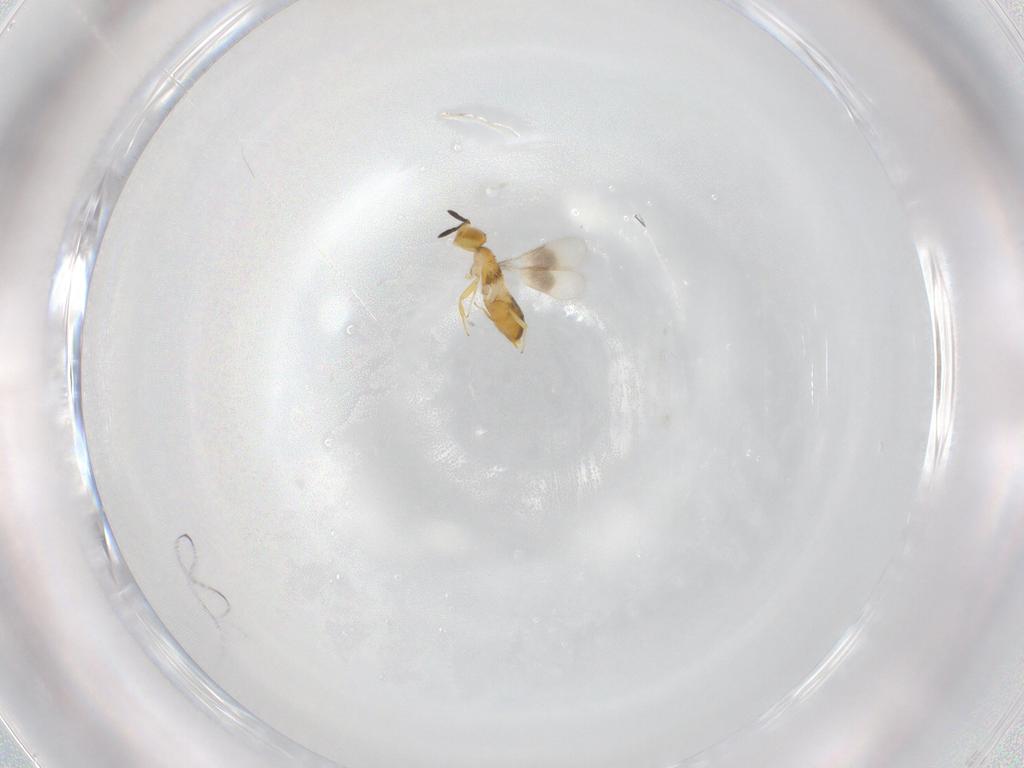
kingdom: Animalia
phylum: Arthropoda
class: Insecta
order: Hymenoptera
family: Encyrtidae
